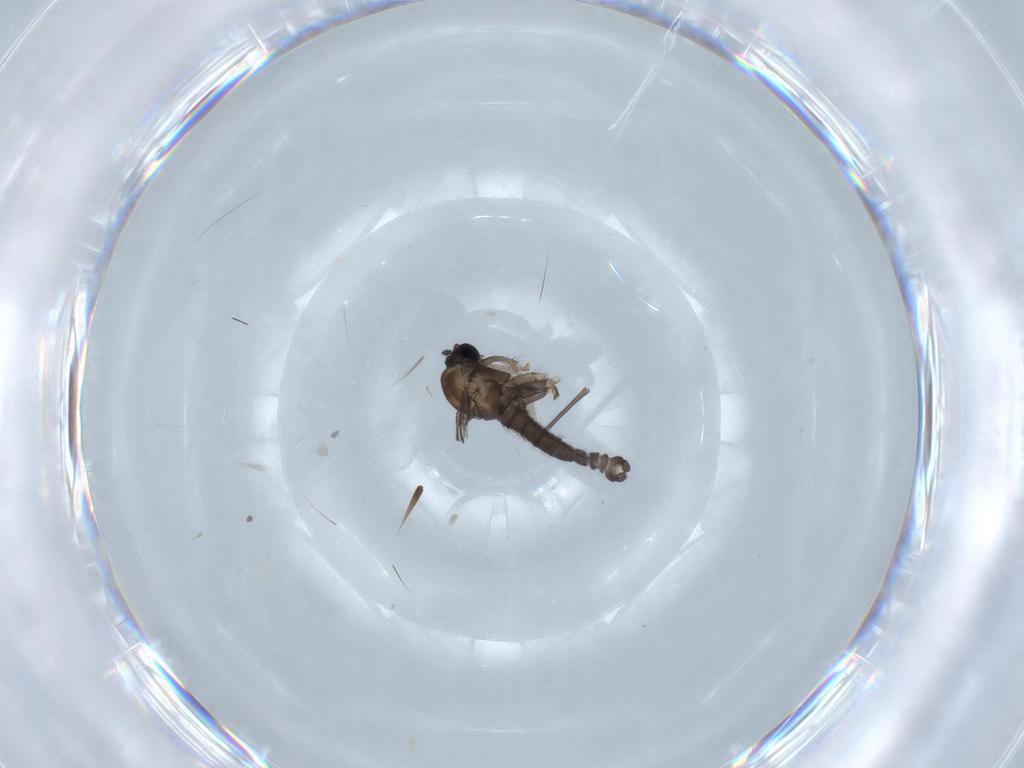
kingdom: Animalia
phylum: Arthropoda
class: Insecta
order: Diptera
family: Sciaridae
